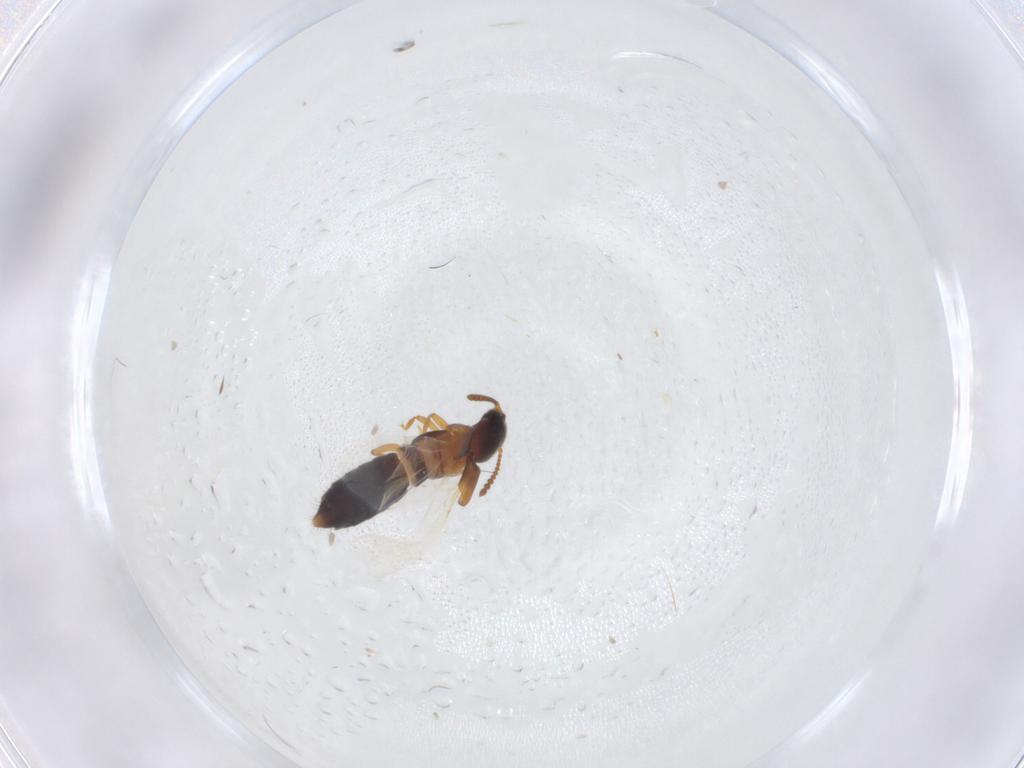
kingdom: Animalia
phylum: Arthropoda
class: Insecta
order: Coleoptera
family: Staphylinidae
